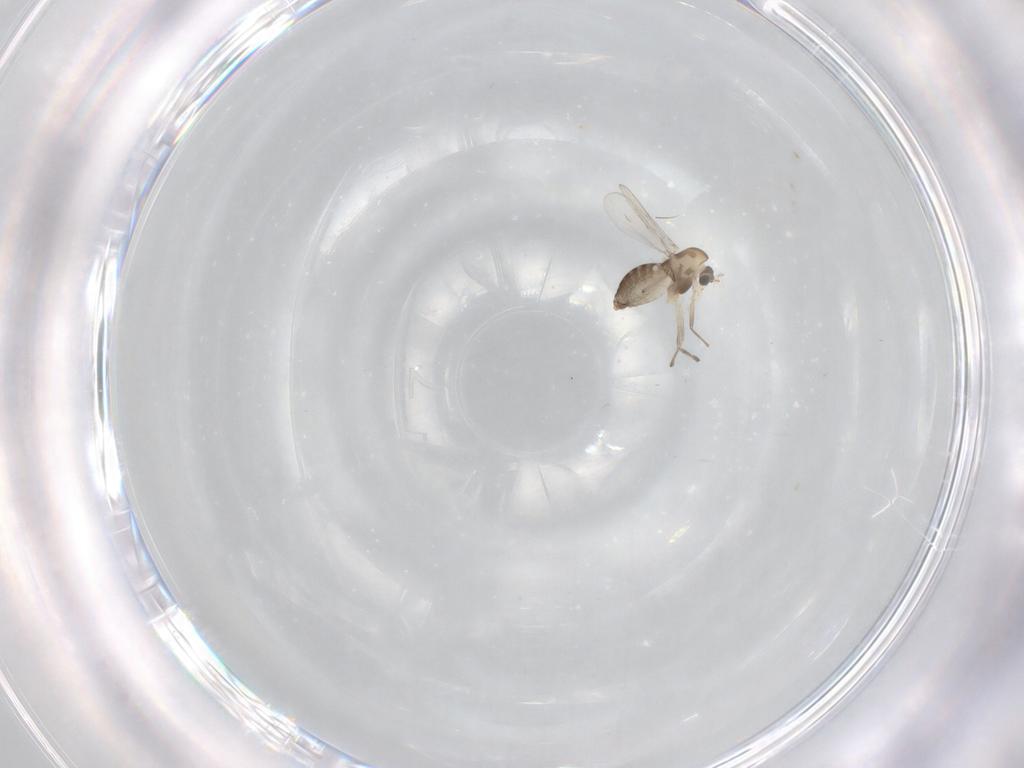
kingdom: Animalia
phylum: Arthropoda
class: Insecta
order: Diptera
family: Chironomidae
